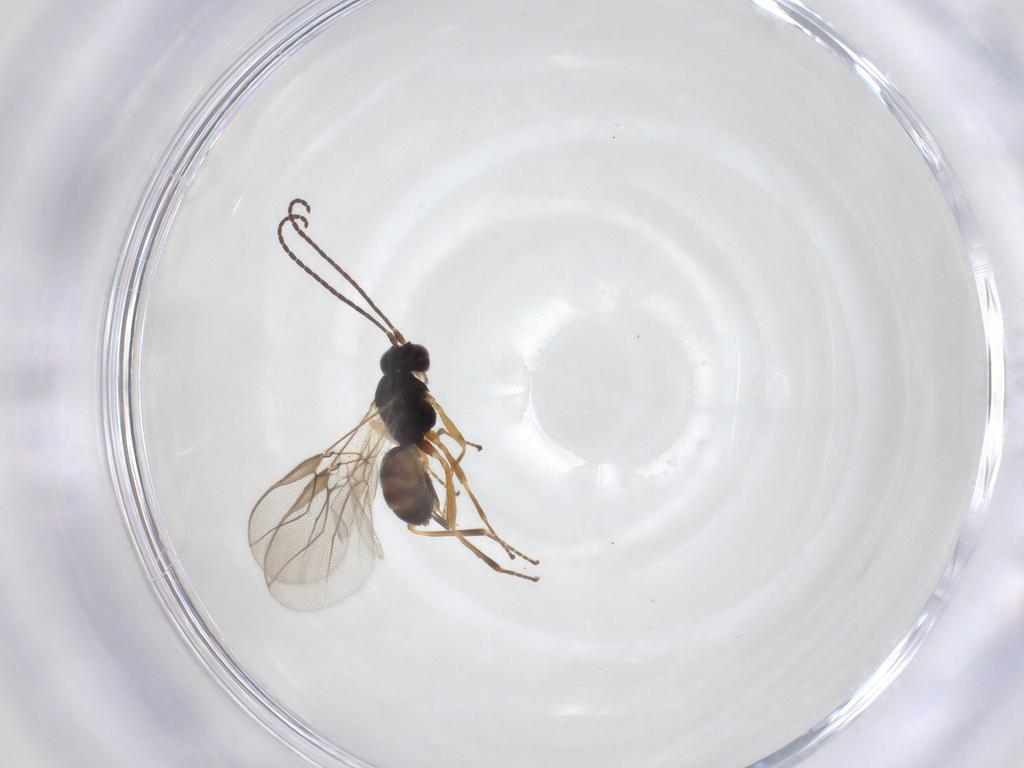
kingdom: Animalia
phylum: Arthropoda
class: Insecta
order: Hymenoptera
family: Braconidae
